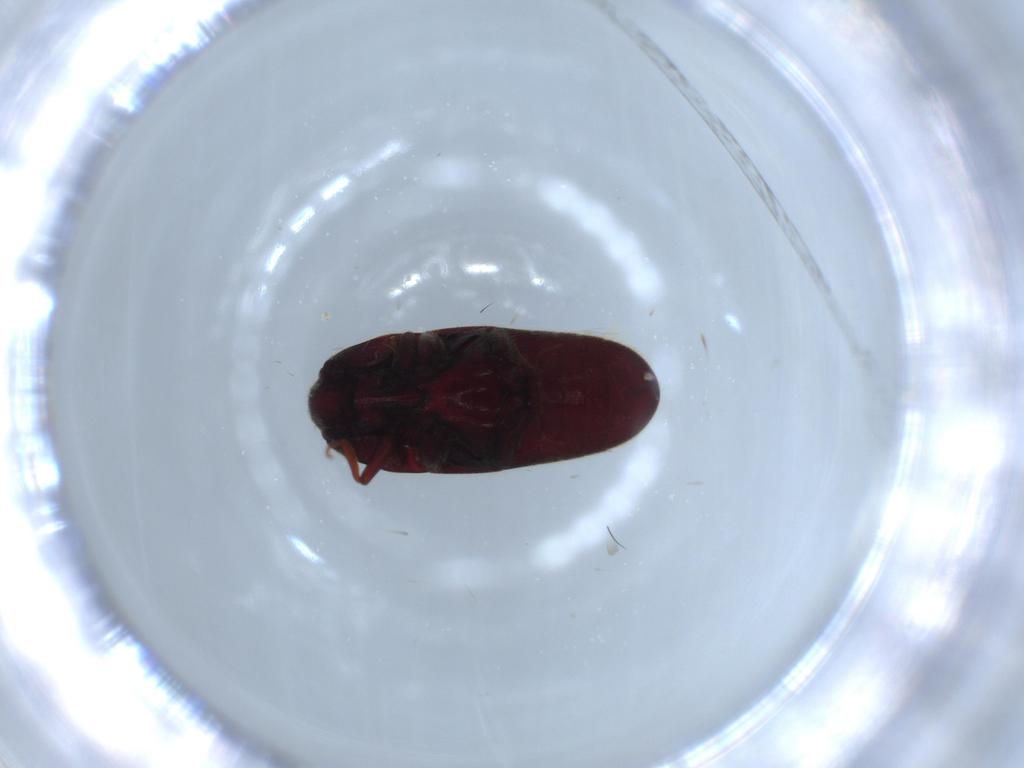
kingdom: Animalia
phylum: Arthropoda
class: Insecta
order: Coleoptera
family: Throscidae
